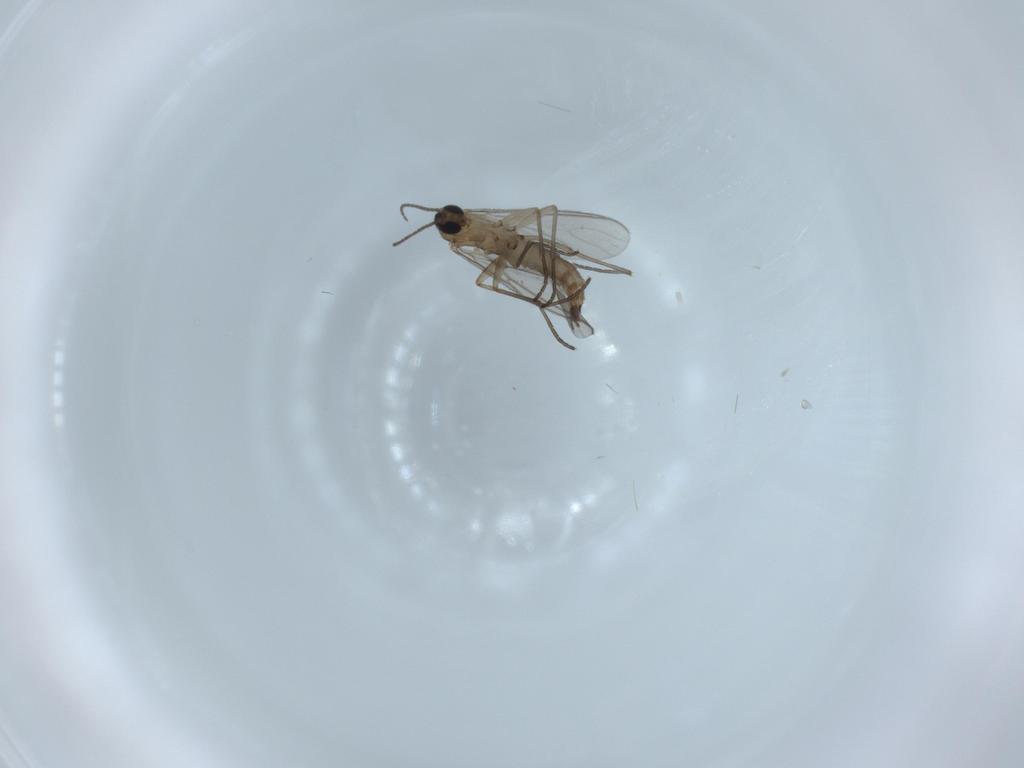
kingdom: Animalia
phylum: Arthropoda
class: Insecta
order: Diptera
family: Sciaridae
